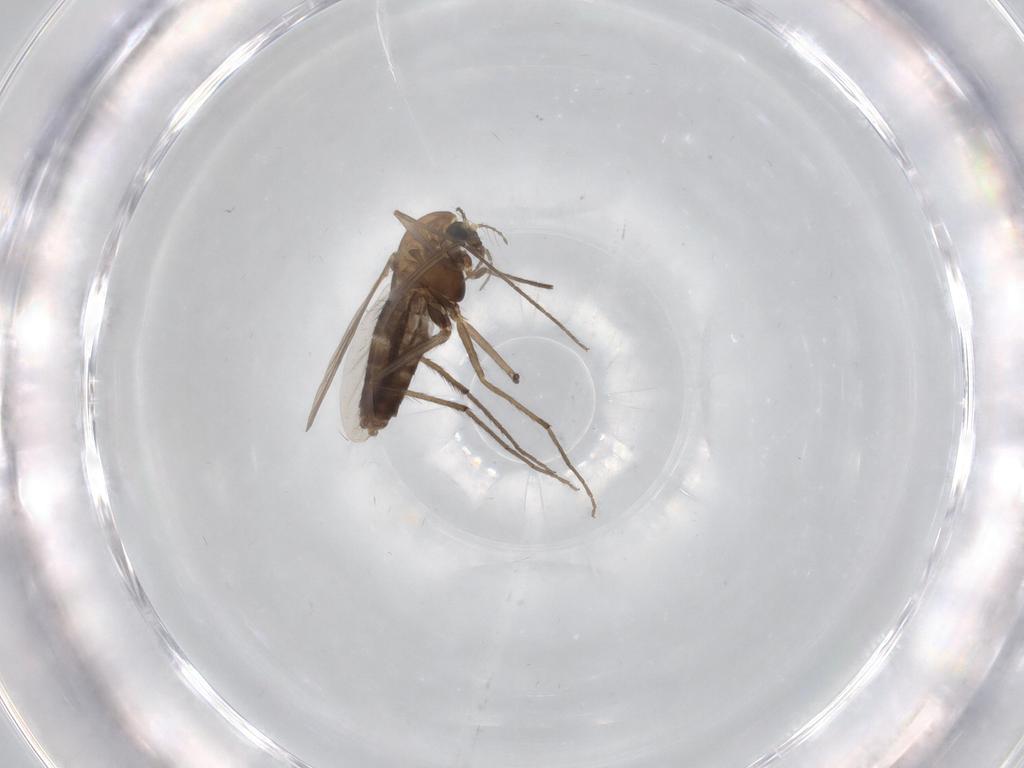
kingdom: Animalia
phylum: Arthropoda
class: Insecta
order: Diptera
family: Chironomidae
